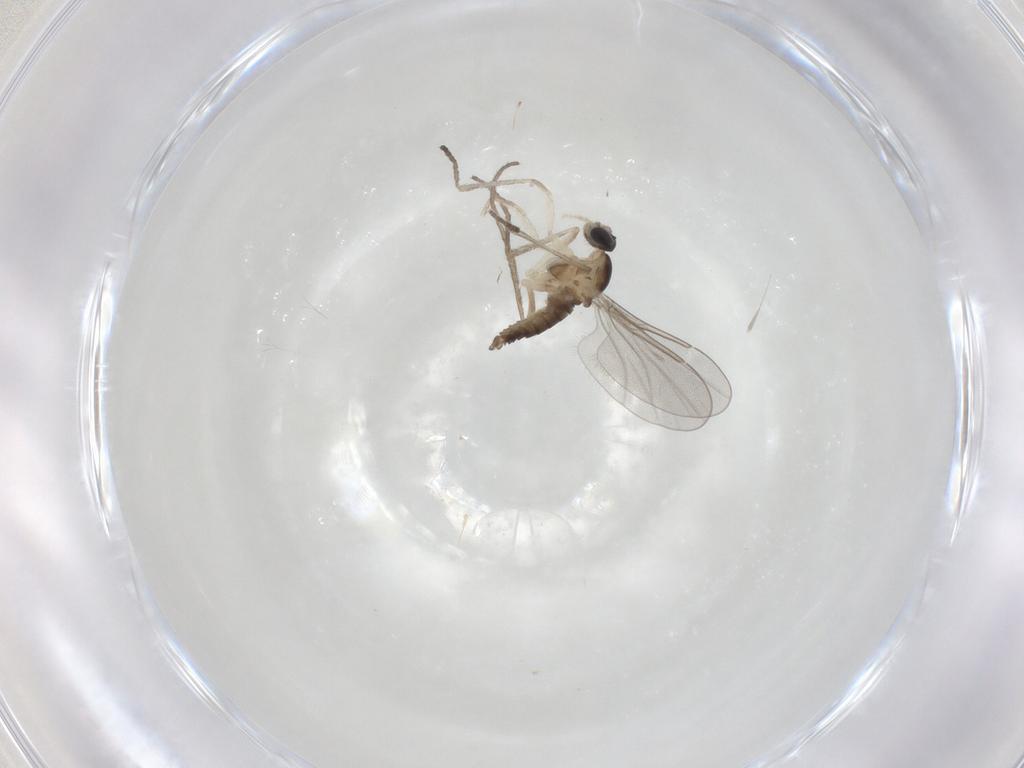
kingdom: Animalia
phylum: Arthropoda
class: Insecta
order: Diptera
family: Cecidomyiidae
